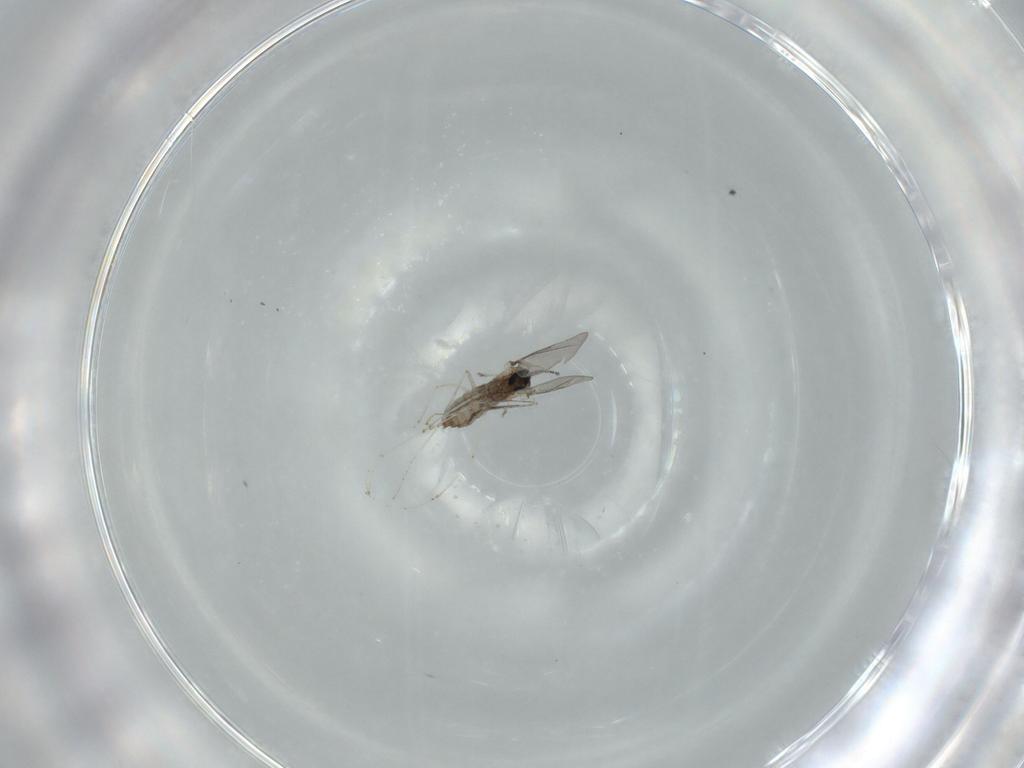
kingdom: Animalia
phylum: Arthropoda
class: Insecta
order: Diptera
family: Cecidomyiidae
